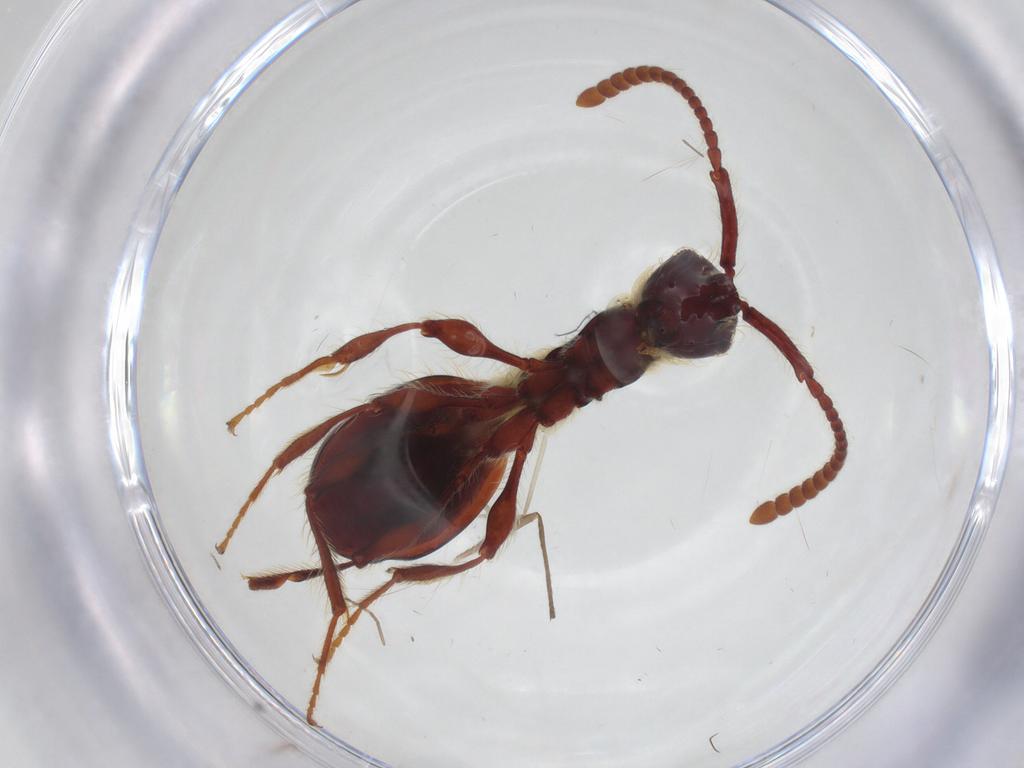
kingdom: Animalia
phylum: Arthropoda
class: Insecta
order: Hymenoptera
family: Diapriidae
